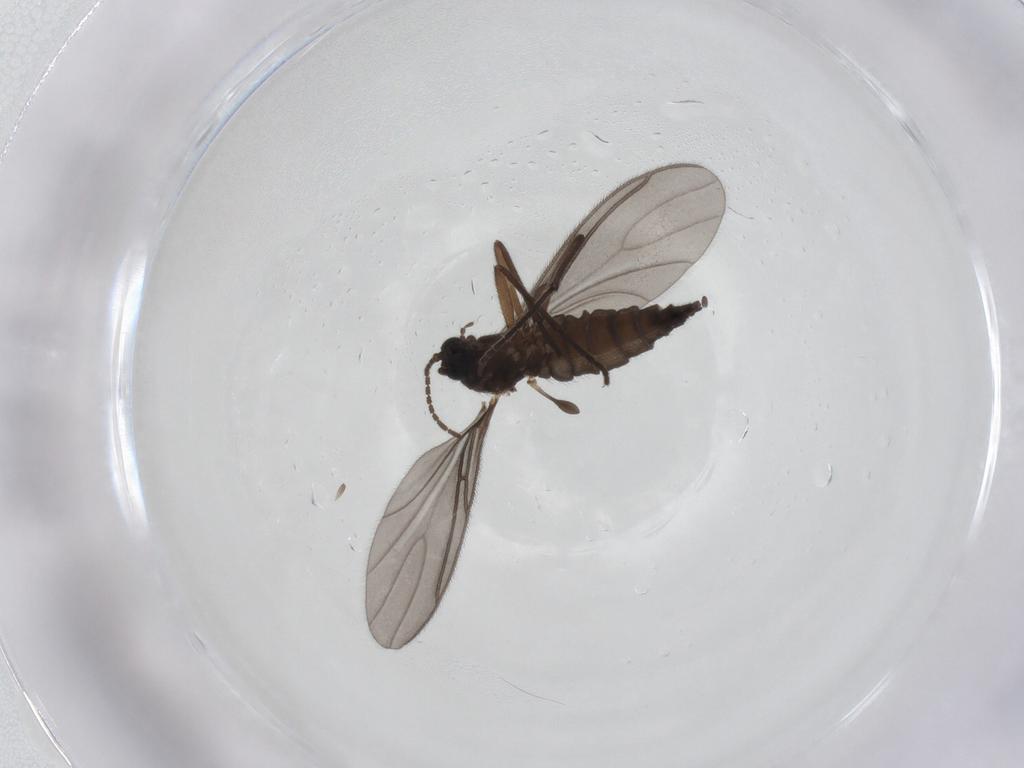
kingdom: Animalia
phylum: Arthropoda
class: Insecta
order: Diptera
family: Sciaridae
